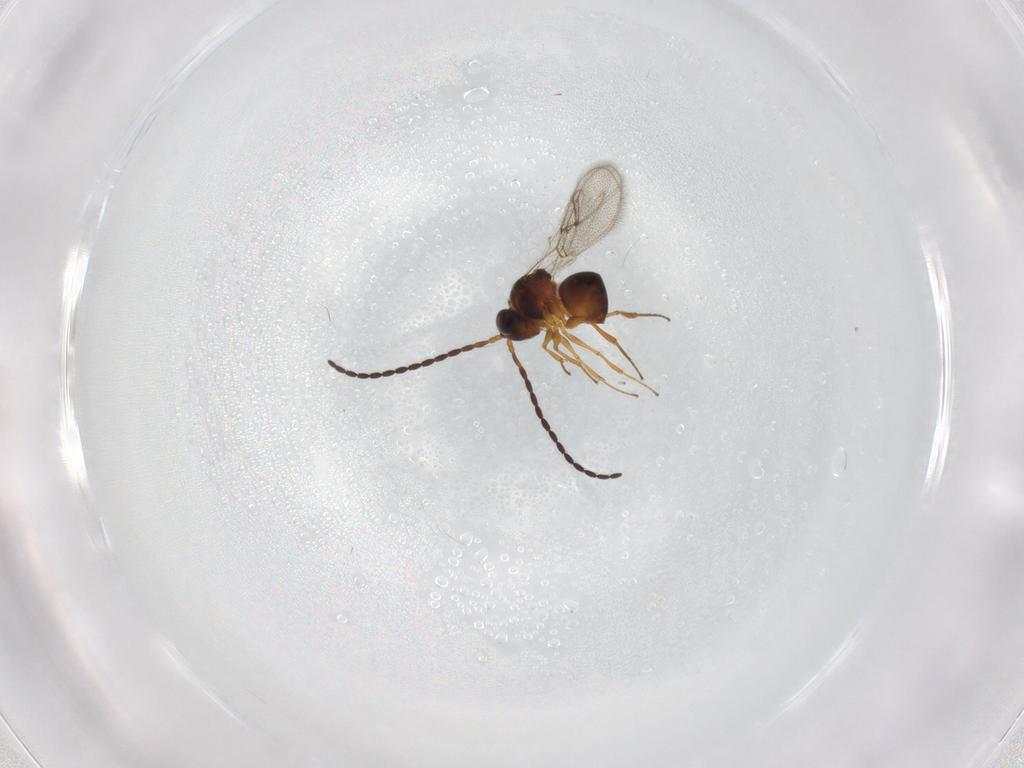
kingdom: Animalia
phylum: Arthropoda
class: Insecta
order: Hymenoptera
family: Figitidae
